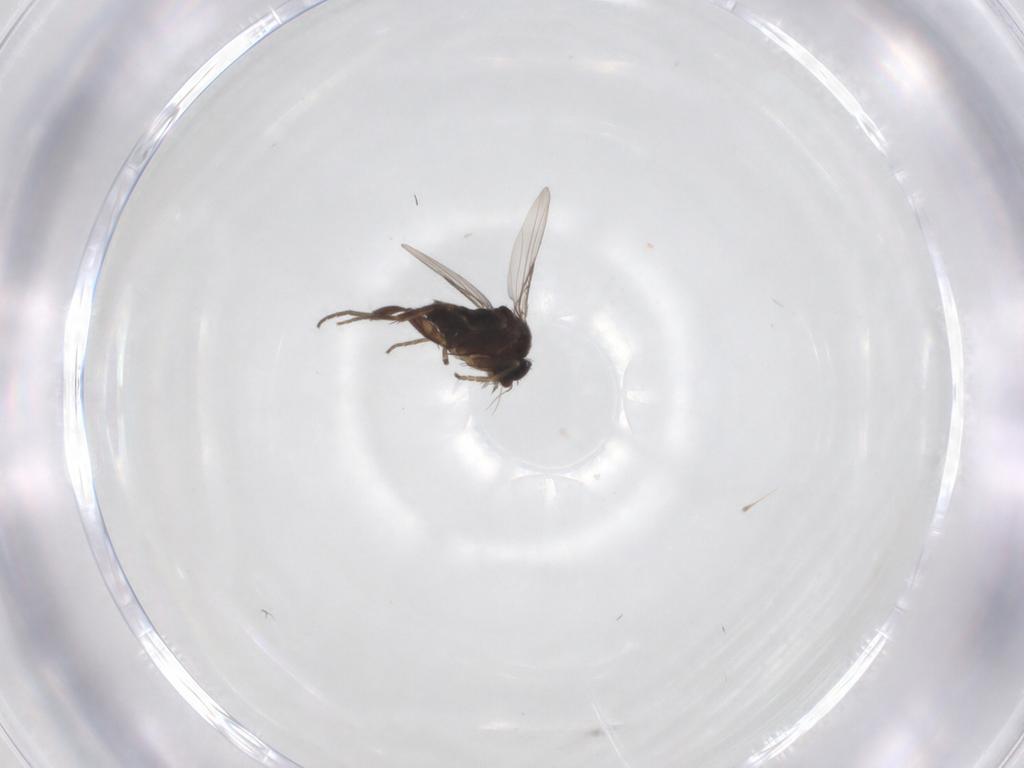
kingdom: Animalia
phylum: Arthropoda
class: Insecta
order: Diptera
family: Phoridae
